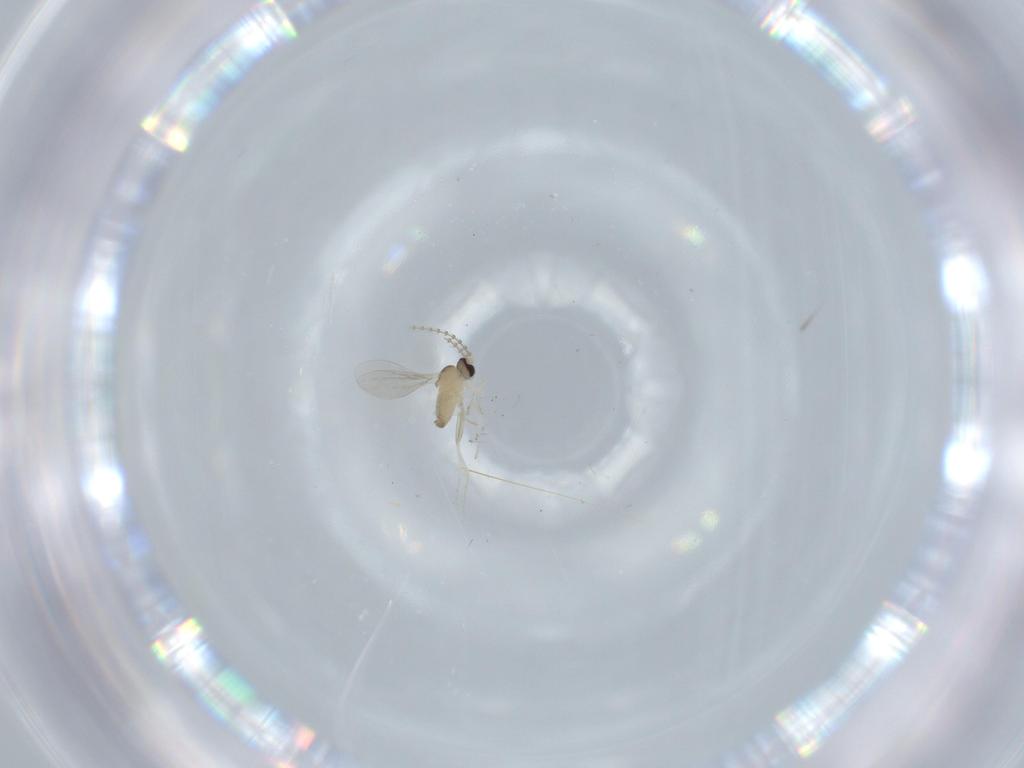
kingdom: Animalia
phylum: Arthropoda
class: Insecta
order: Diptera
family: Cecidomyiidae
